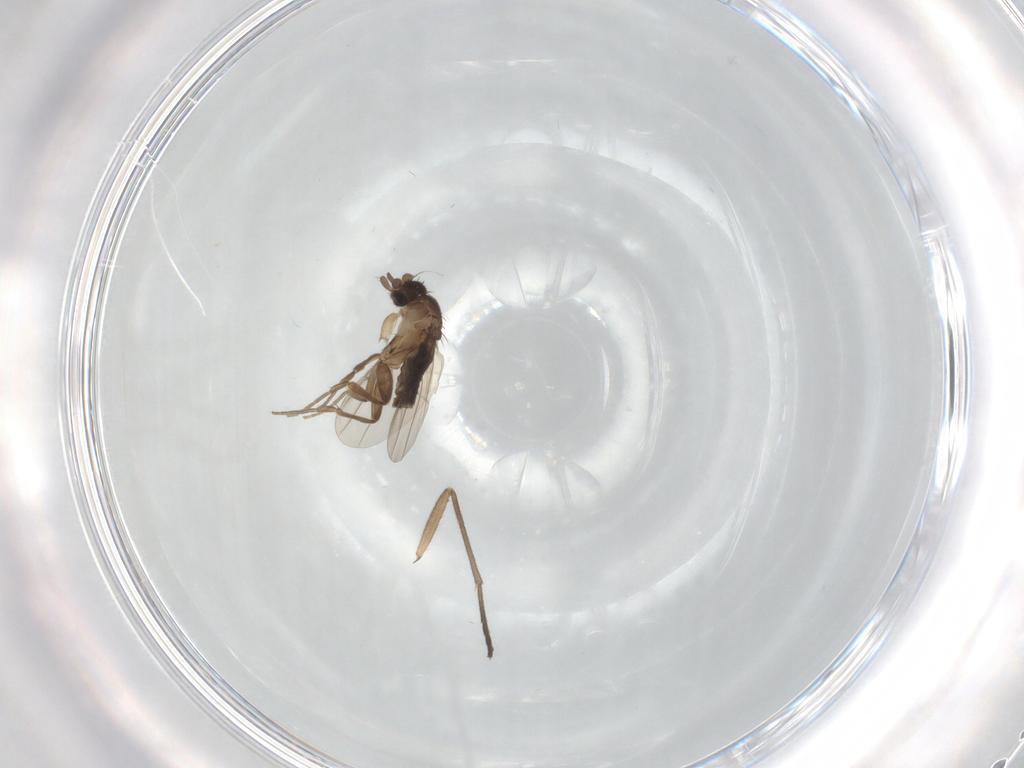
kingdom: Animalia
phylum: Arthropoda
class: Insecta
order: Diptera
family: Phoridae
